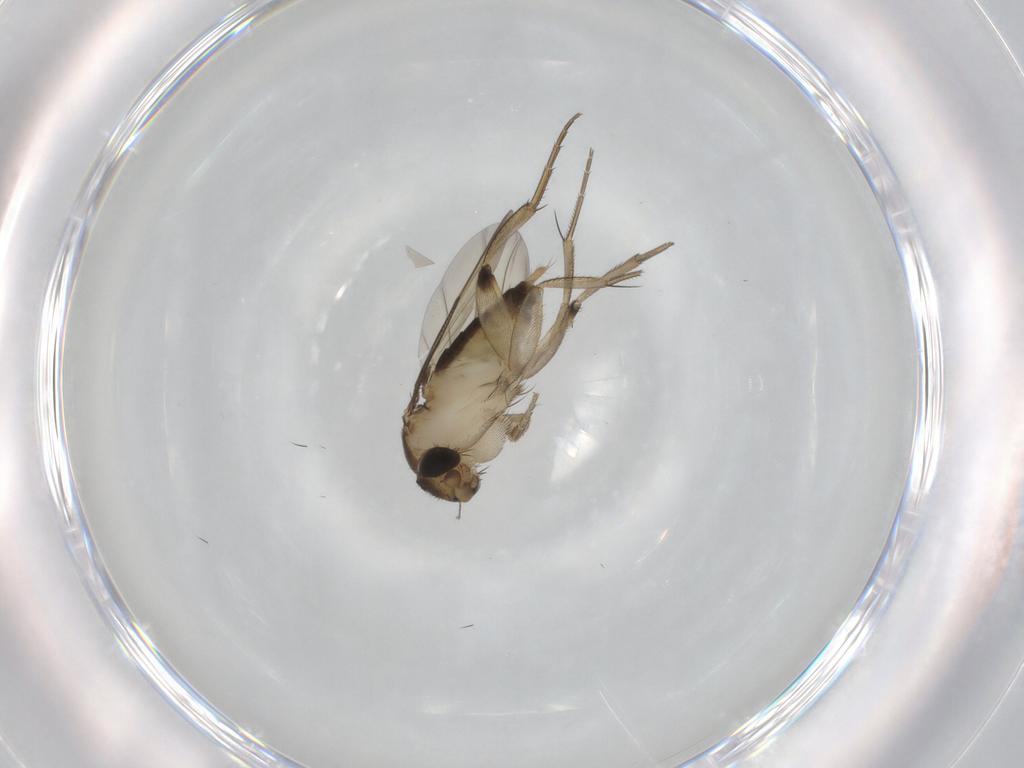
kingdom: Animalia
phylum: Arthropoda
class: Insecta
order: Diptera
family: Phoridae
